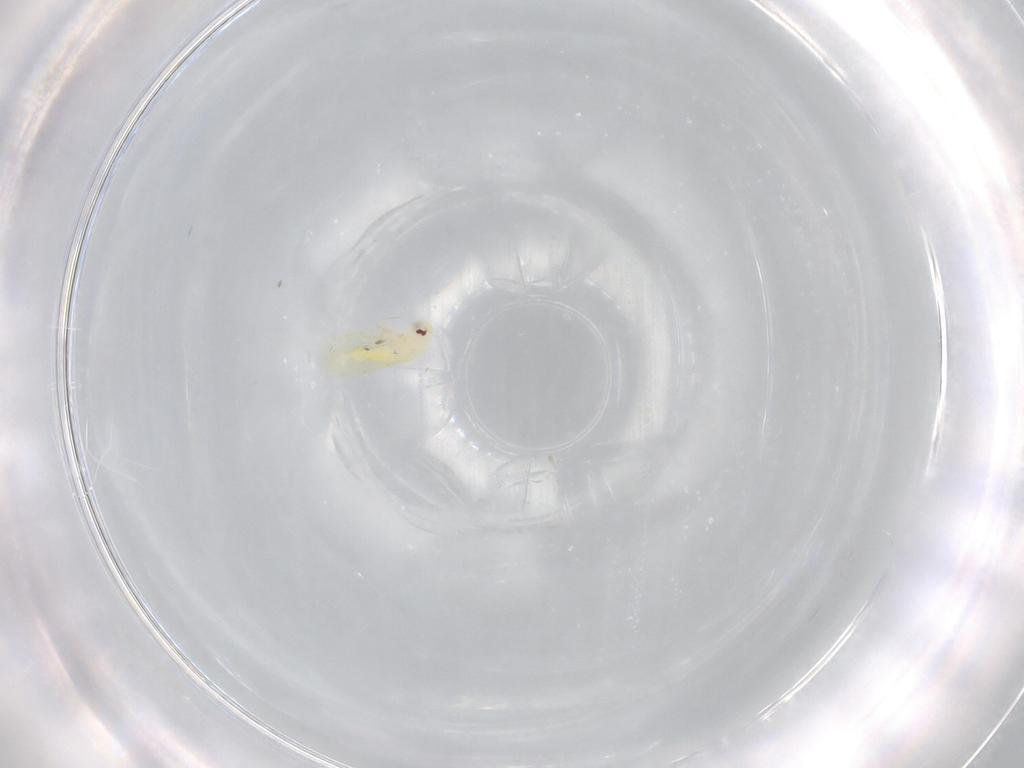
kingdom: Animalia
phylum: Arthropoda
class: Insecta
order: Hemiptera
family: Aleyrodidae
